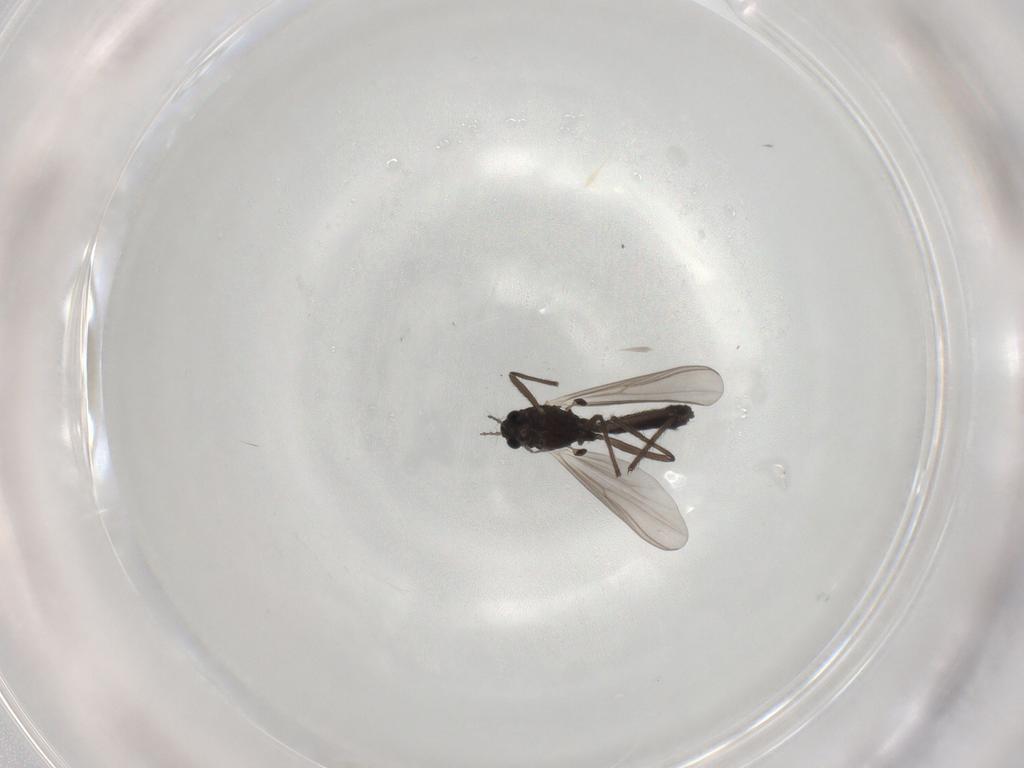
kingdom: Animalia
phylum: Arthropoda
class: Insecta
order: Diptera
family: Chironomidae
